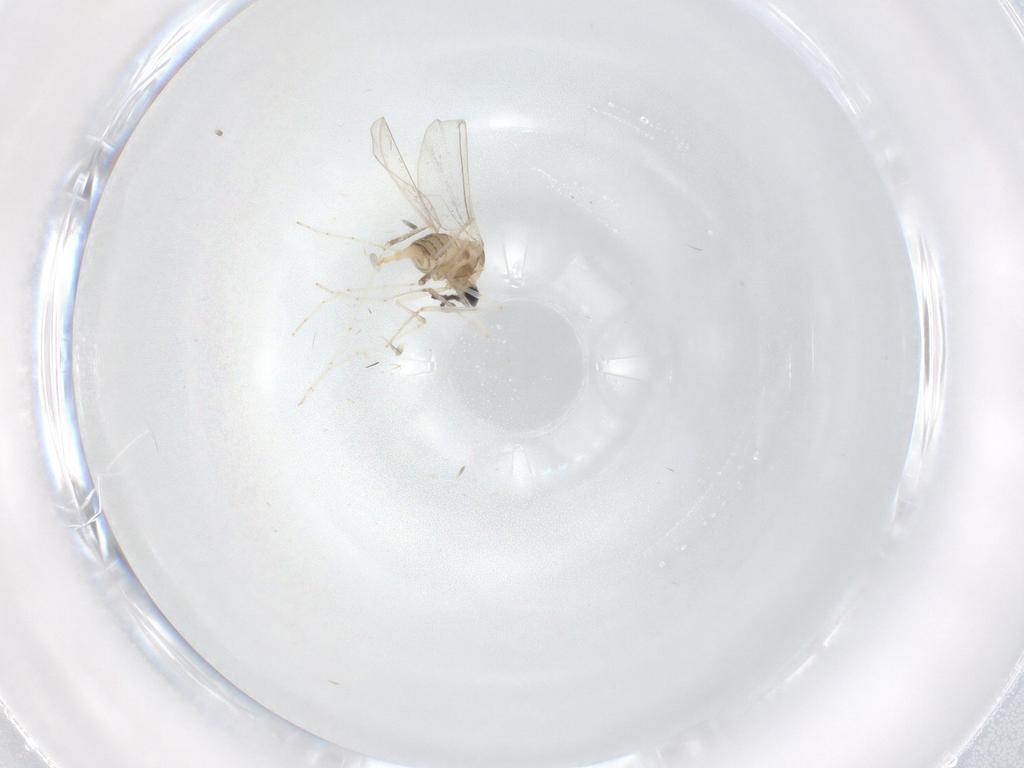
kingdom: Animalia
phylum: Arthropoda
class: Insecta
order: Diptera
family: Cecidomyiidae
